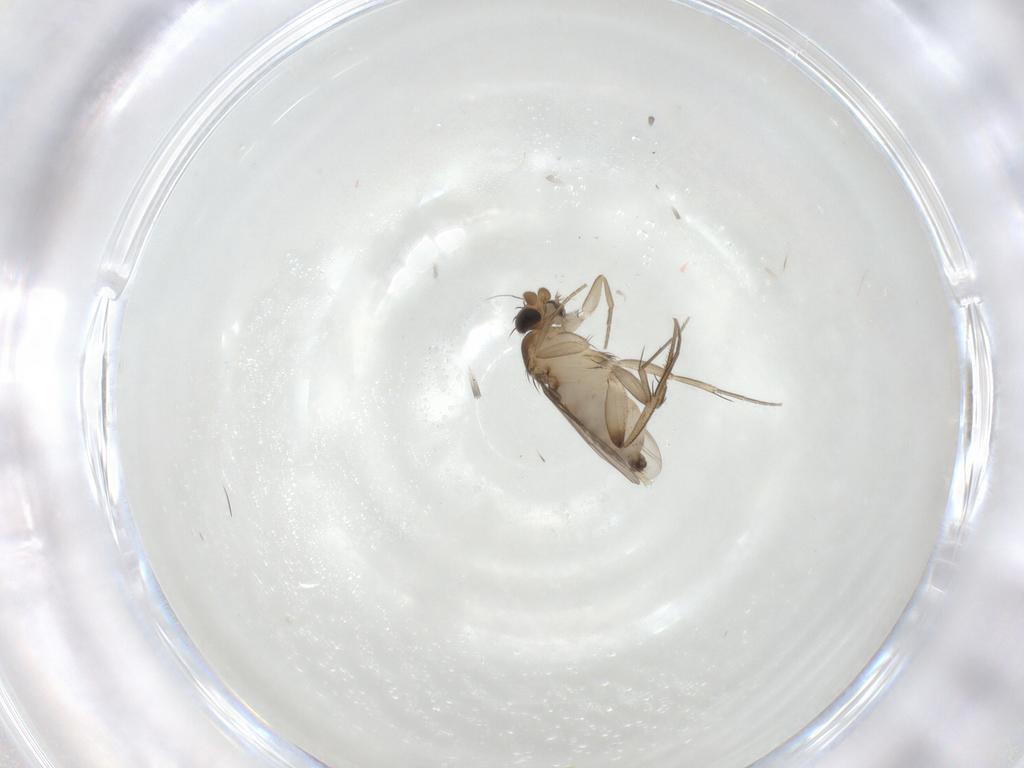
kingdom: Animalia
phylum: Arthropoda
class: Insecta
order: Diptera
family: Phoridae
